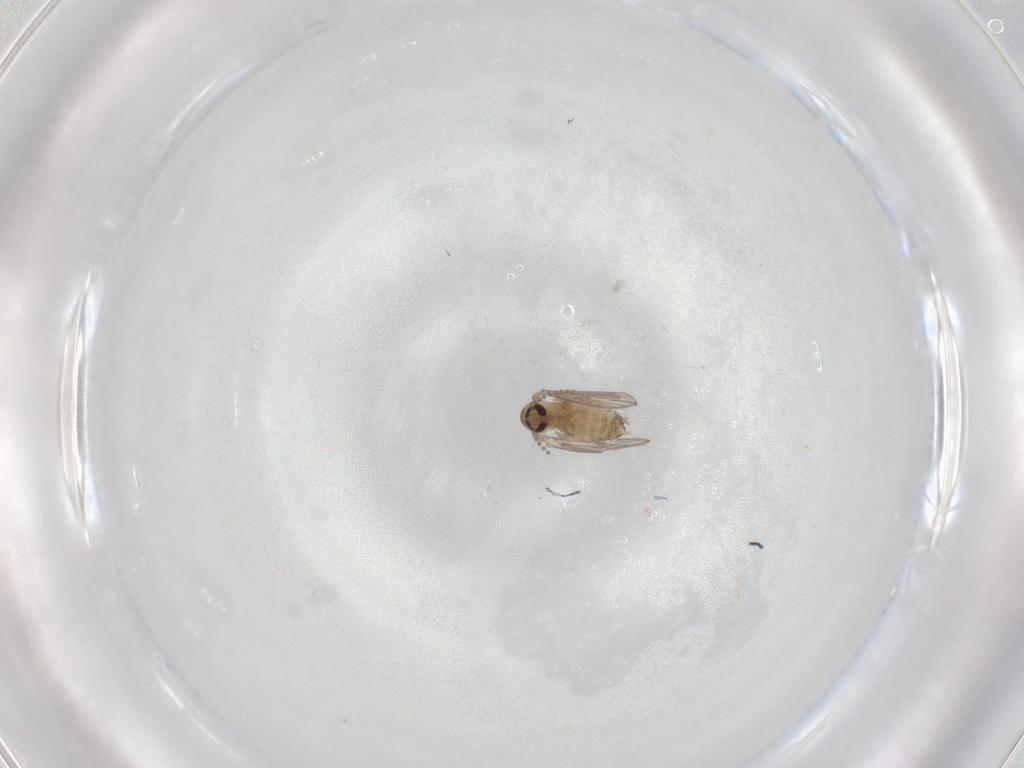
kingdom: Animalia
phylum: Arthropoda
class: Insecta
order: Diptera
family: Psychodidae
